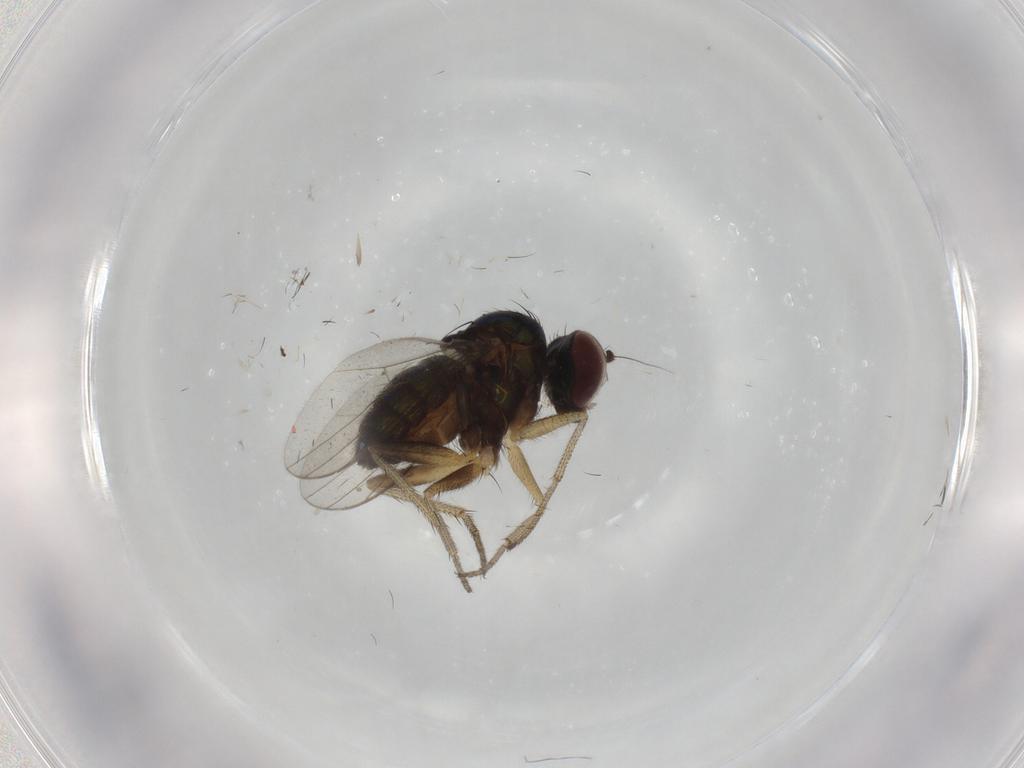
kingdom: Animalia
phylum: Arthropoda
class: Insecta
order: Diptera
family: Dolichopodidae
